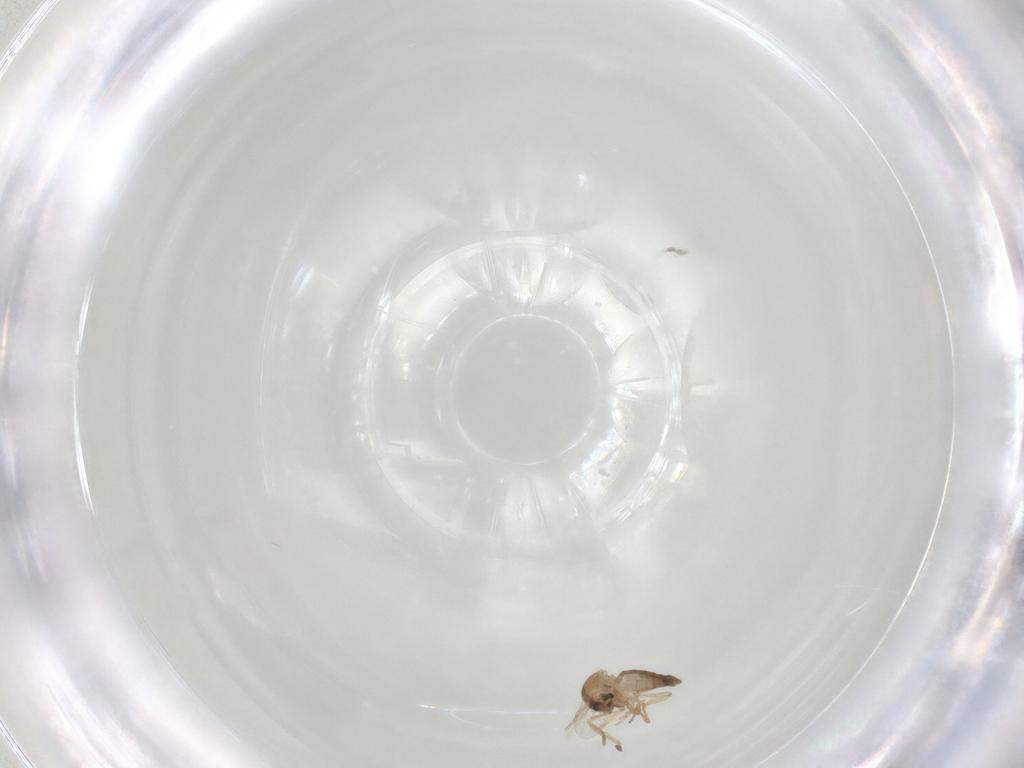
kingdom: Animalia
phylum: Arthropoda
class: Insecta
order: Diptera
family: Ceratopogonidae
